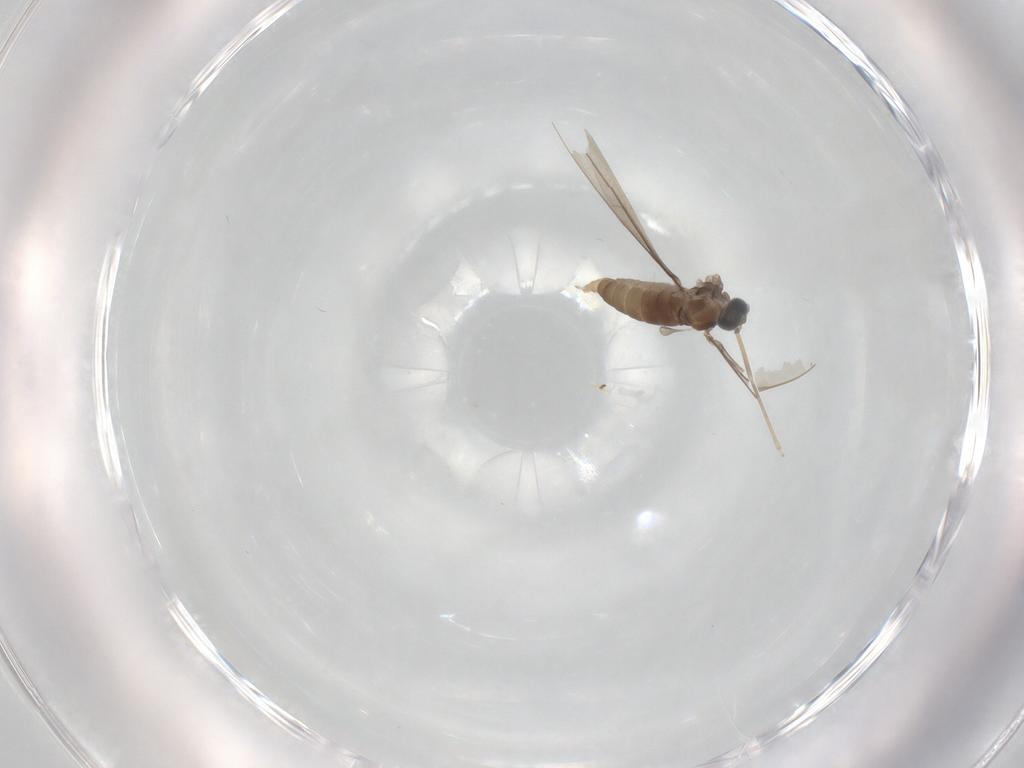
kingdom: Animalia
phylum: Arthropoda
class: Insecta
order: Diptera
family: Cecidomyiidae
